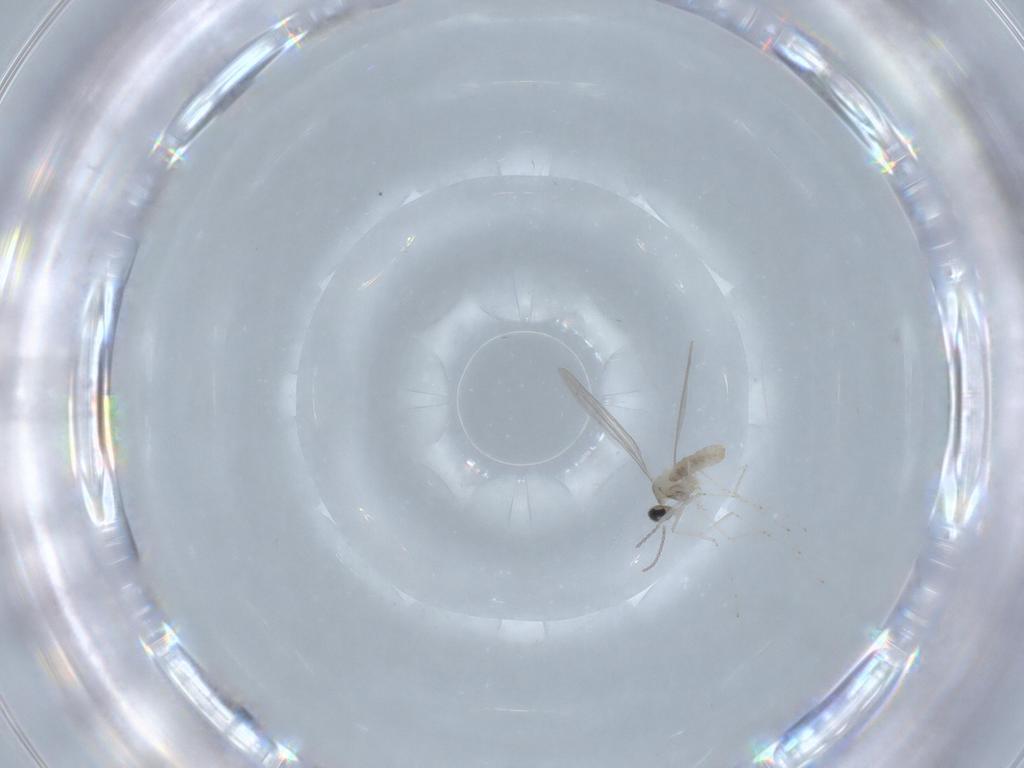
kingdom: Animalia
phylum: Arthropoda
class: Insecta
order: Diptera
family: Cecidomyiidae
